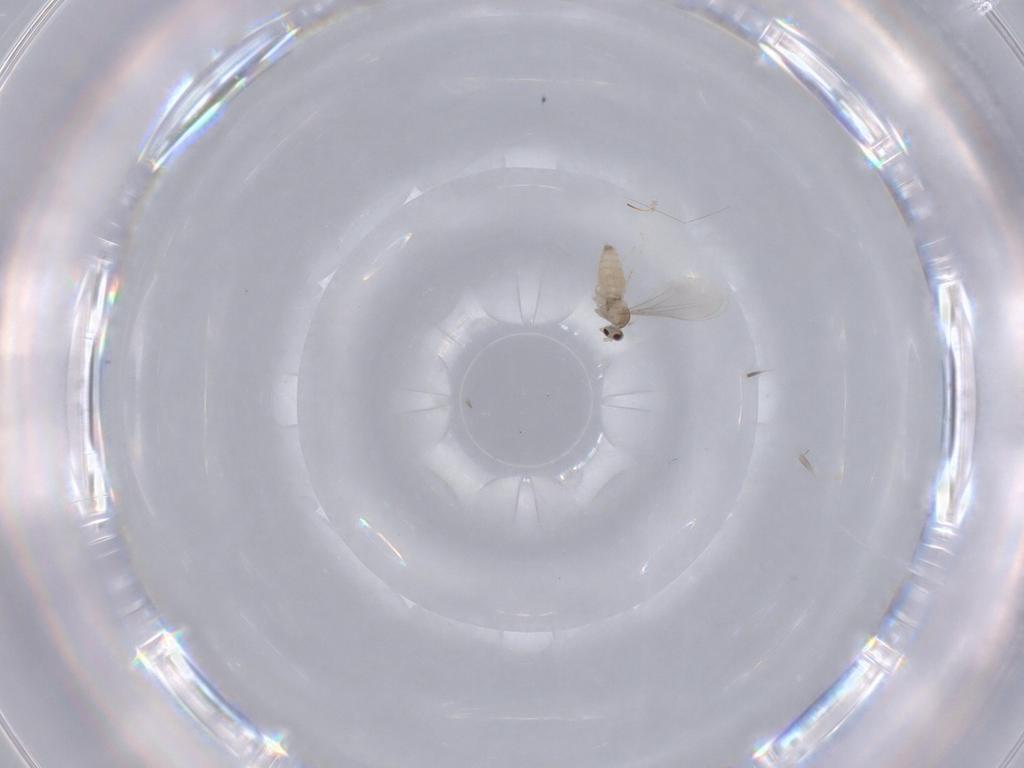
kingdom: Animalia
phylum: Arthropoda
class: Insecta
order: Diptera
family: Cecidomyiidae
